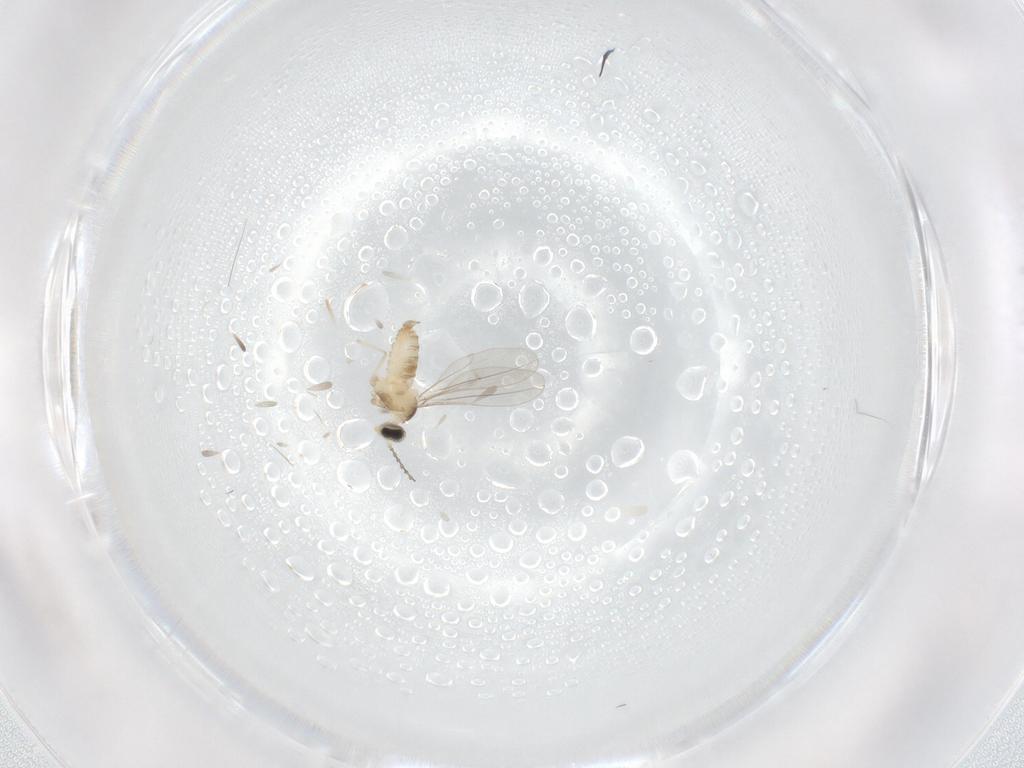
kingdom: Animalia
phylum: Arthropoda
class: Insecta
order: Diptera
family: Cecidomyiidae
